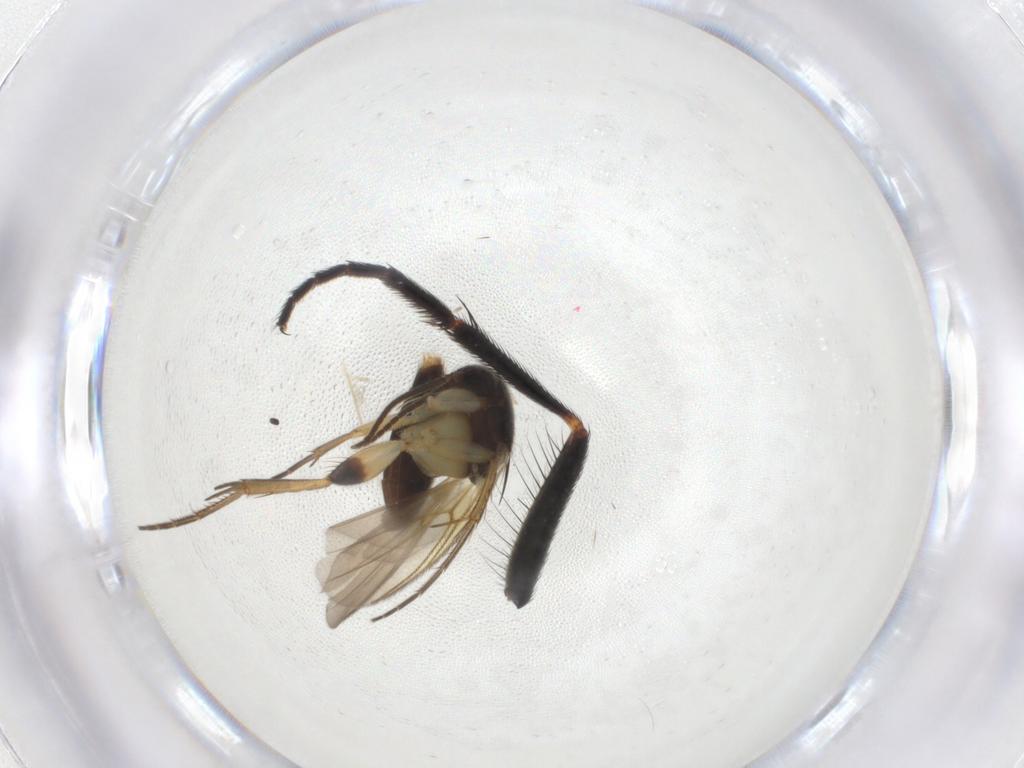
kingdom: Animalia
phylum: Arthropoda
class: Insecta
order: Diptera
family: Mycetophilidae
